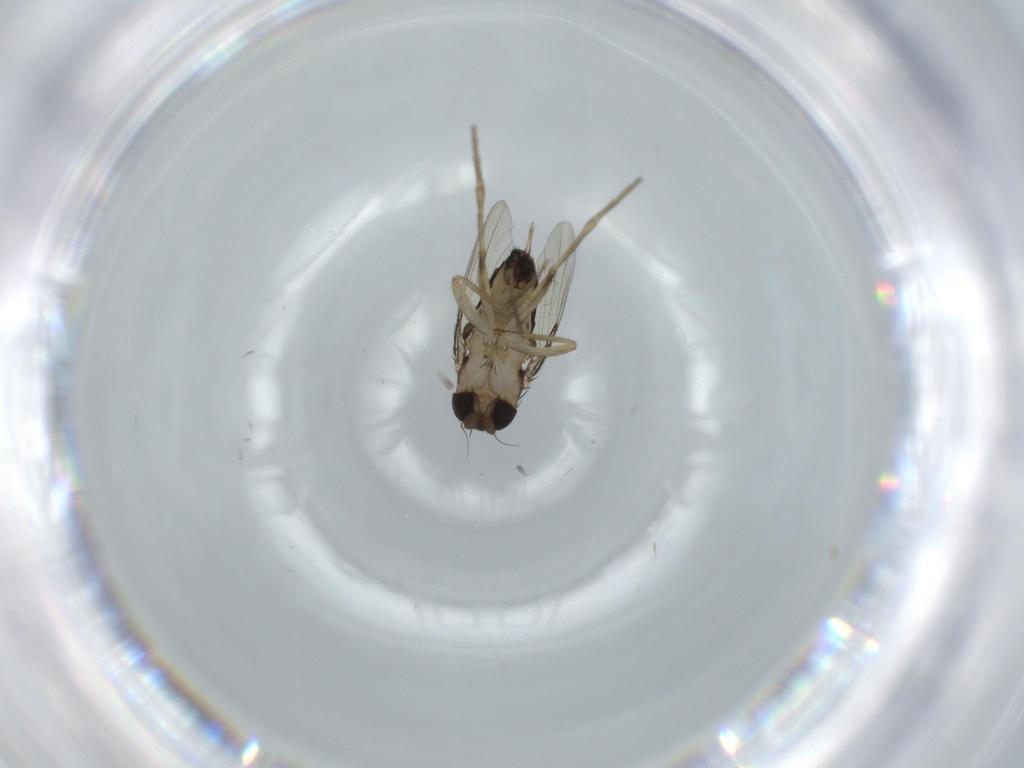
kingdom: Animalia
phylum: Arthropoda
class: Insecta
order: Diptera
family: Phoridae
